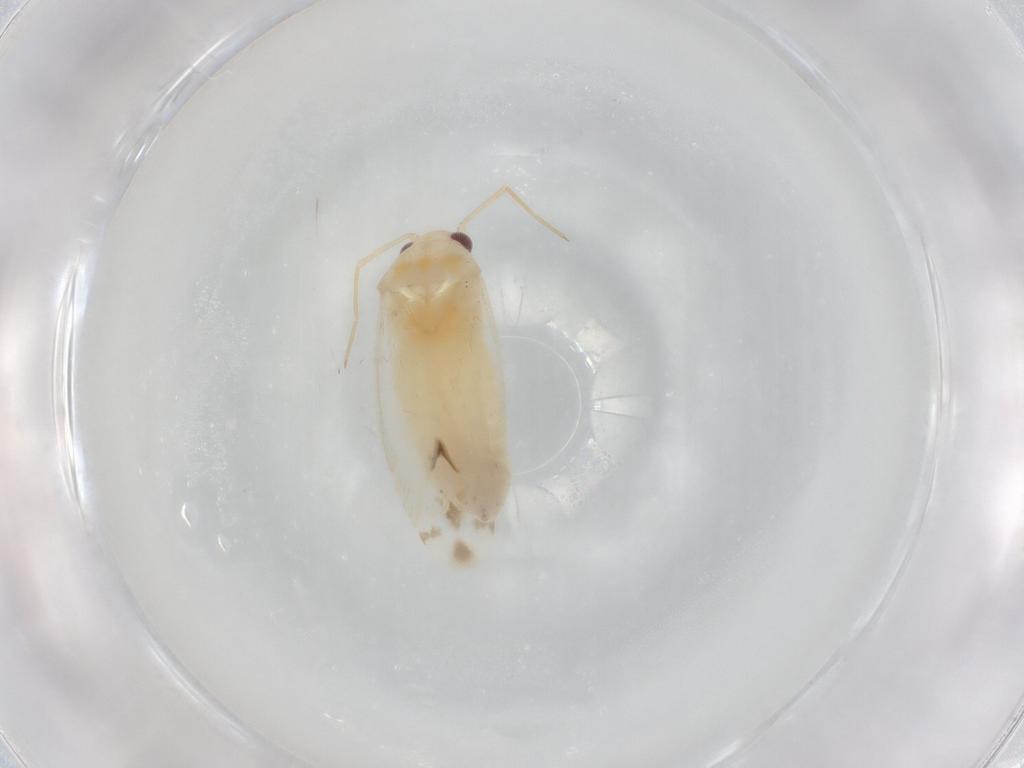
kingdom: Animalia
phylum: Arthropoda
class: Insecta
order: Hemiptera
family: Miridae
